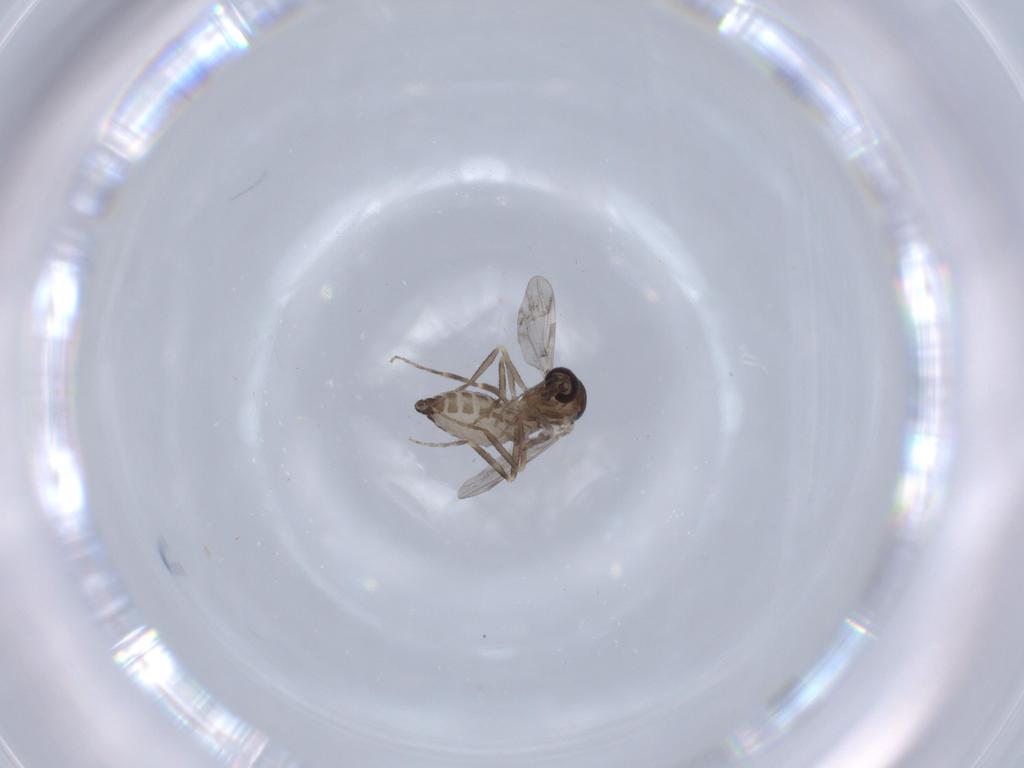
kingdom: Animalia
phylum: Arthropoda
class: Insecta
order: Diptera
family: Ceratopogonidae
